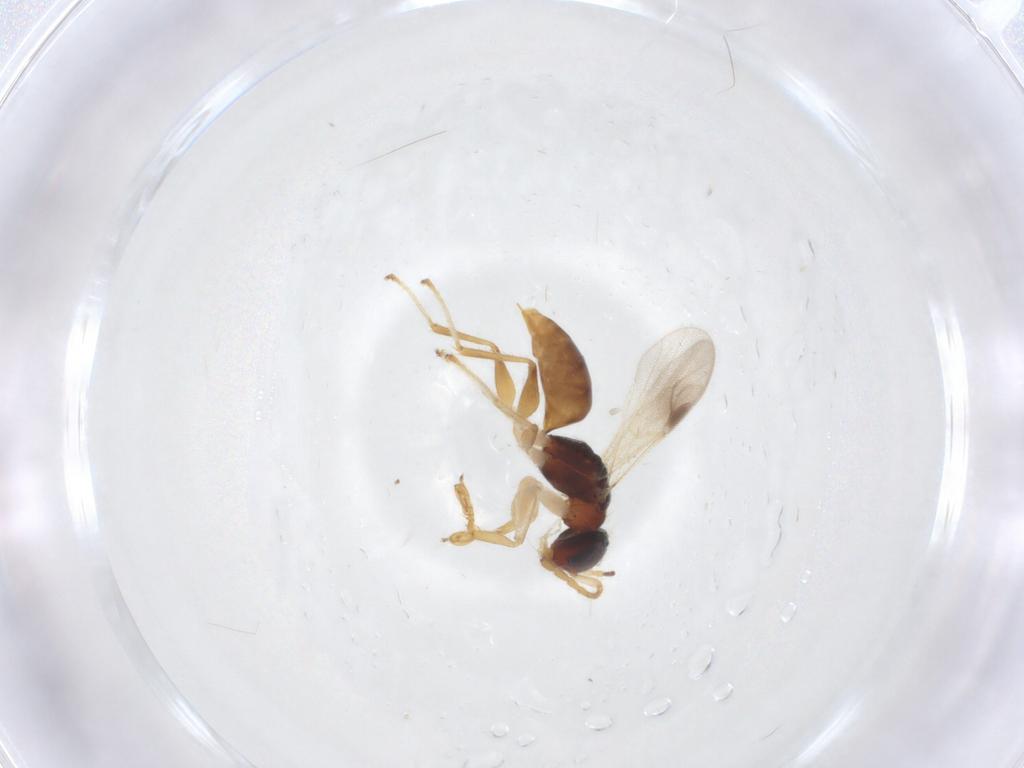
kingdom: Animalia
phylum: Arthropoda
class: Insecta
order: Hymenoptera
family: Dryinidae
